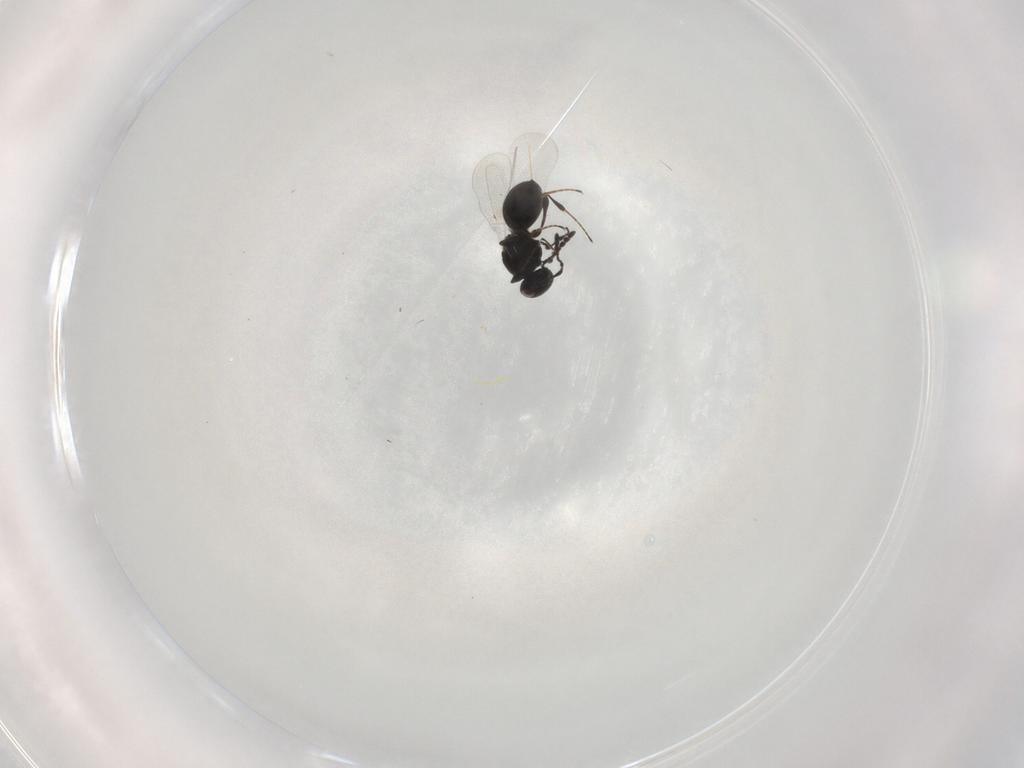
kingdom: Animalia
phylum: Arthropoda
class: Insecta
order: Hymenoptera
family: Platygastridae
